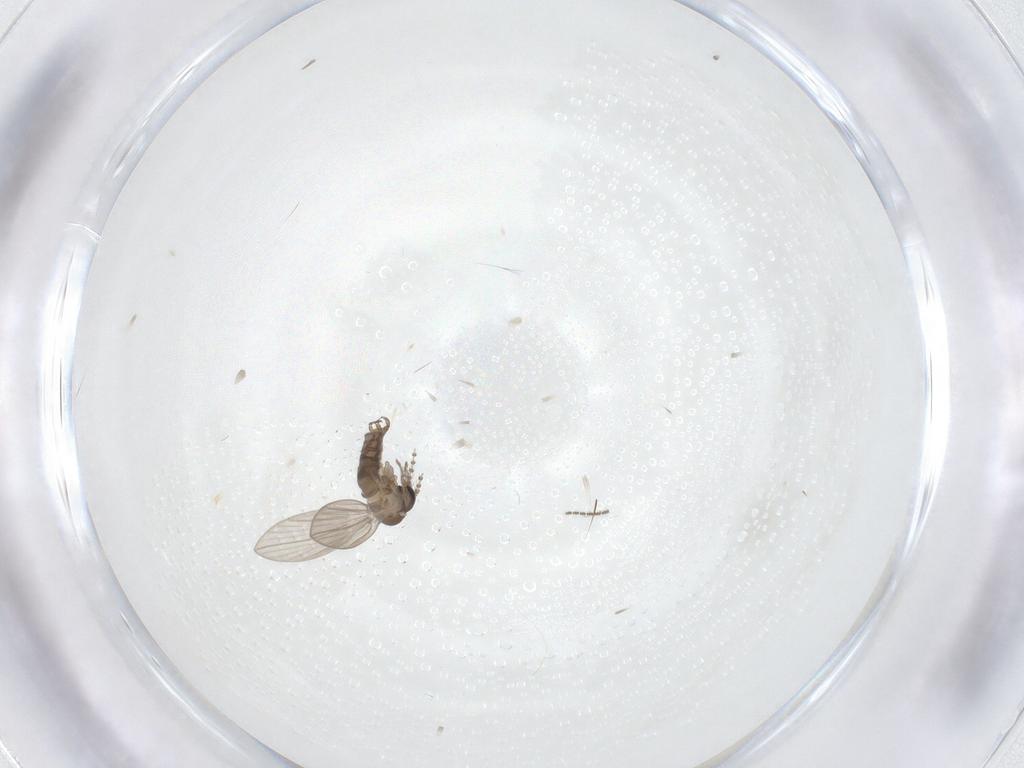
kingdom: Animalia
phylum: Arthropoda
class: Insecta
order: Diptera
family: Psychodidae
